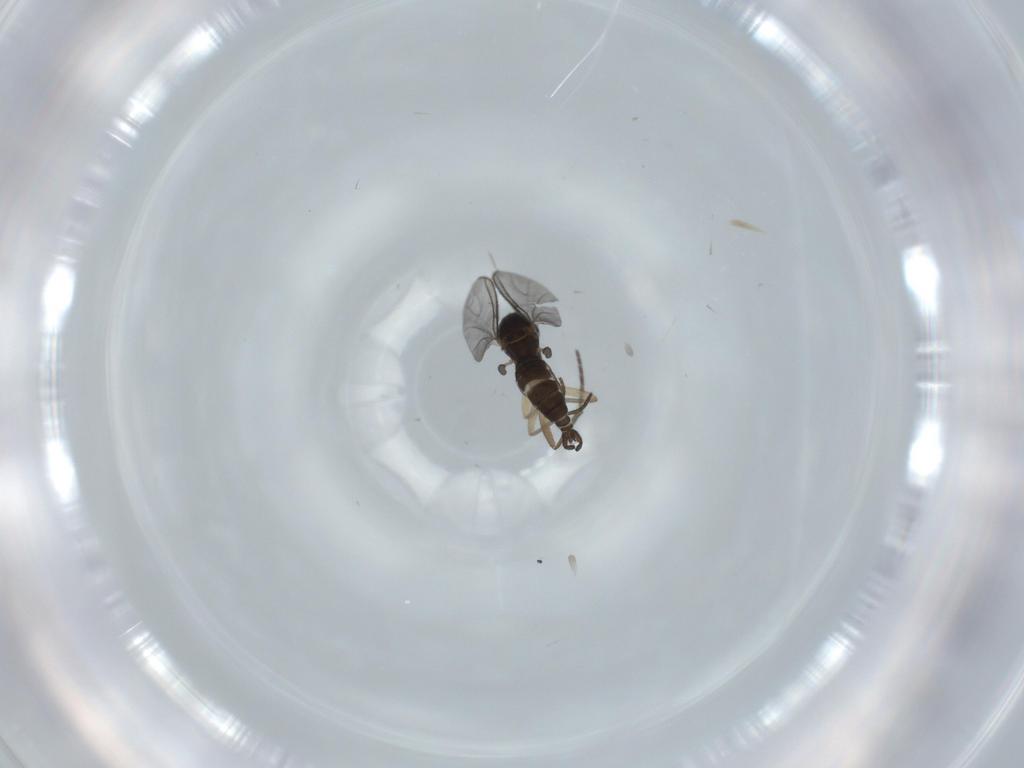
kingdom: Animalia
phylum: Arthropoda
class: Insecta
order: Diptera
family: Sciaridae
